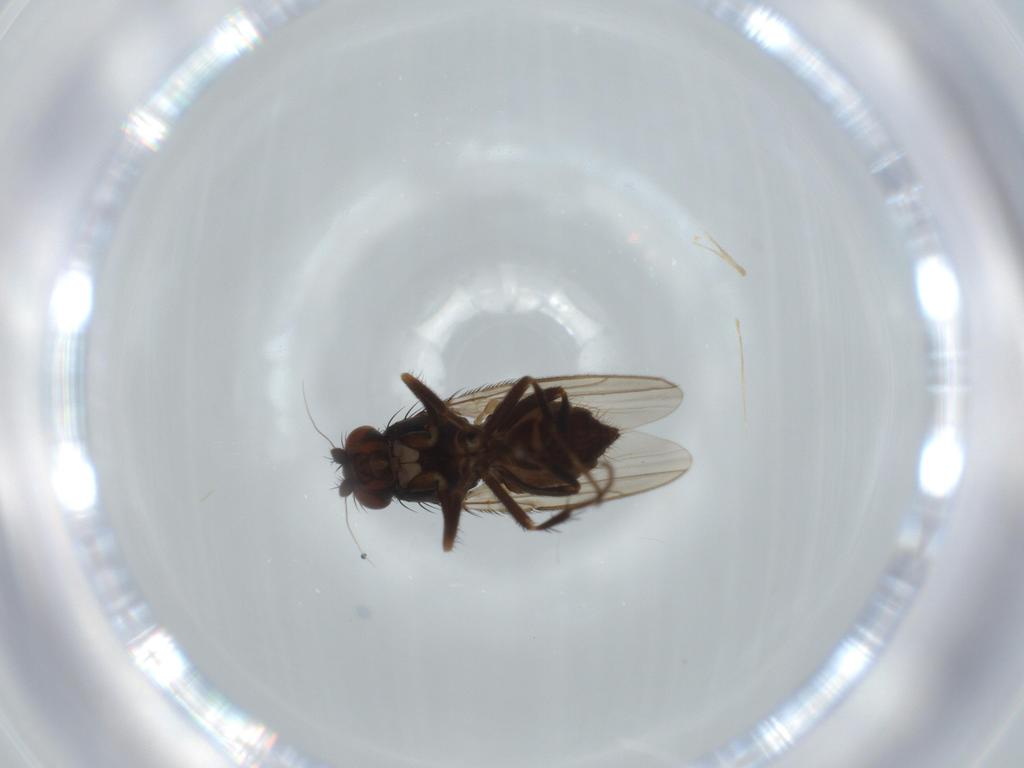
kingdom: Animalia
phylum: Arthropoda
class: Insecta
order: Diptera
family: Sphaeroceridae
